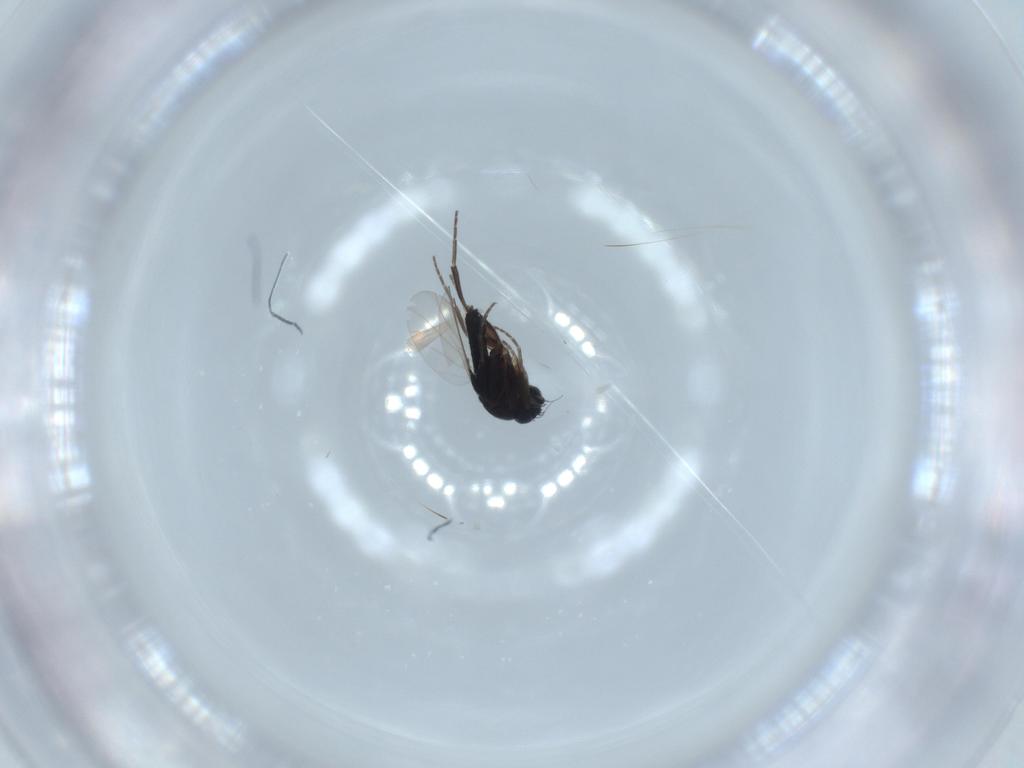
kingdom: Animalia
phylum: Arthropoda
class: Insecta
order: Diptera
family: Phoridae
